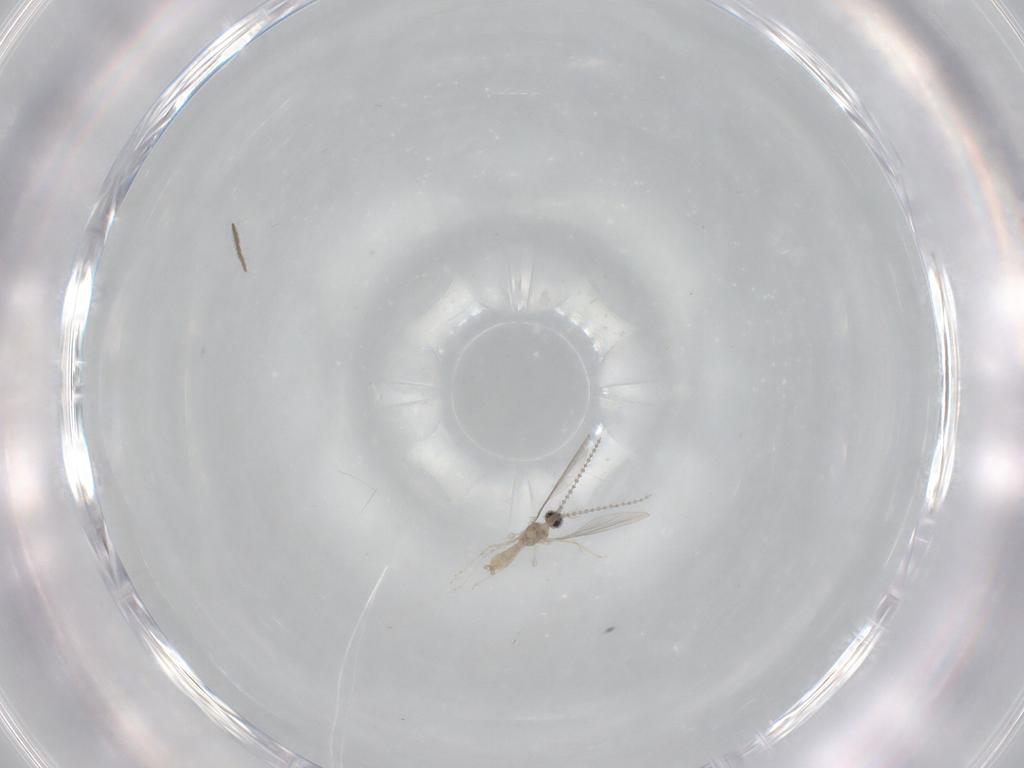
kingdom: Animalia
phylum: Arthropoda
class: Insecta
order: Diptera
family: Chironomidae
